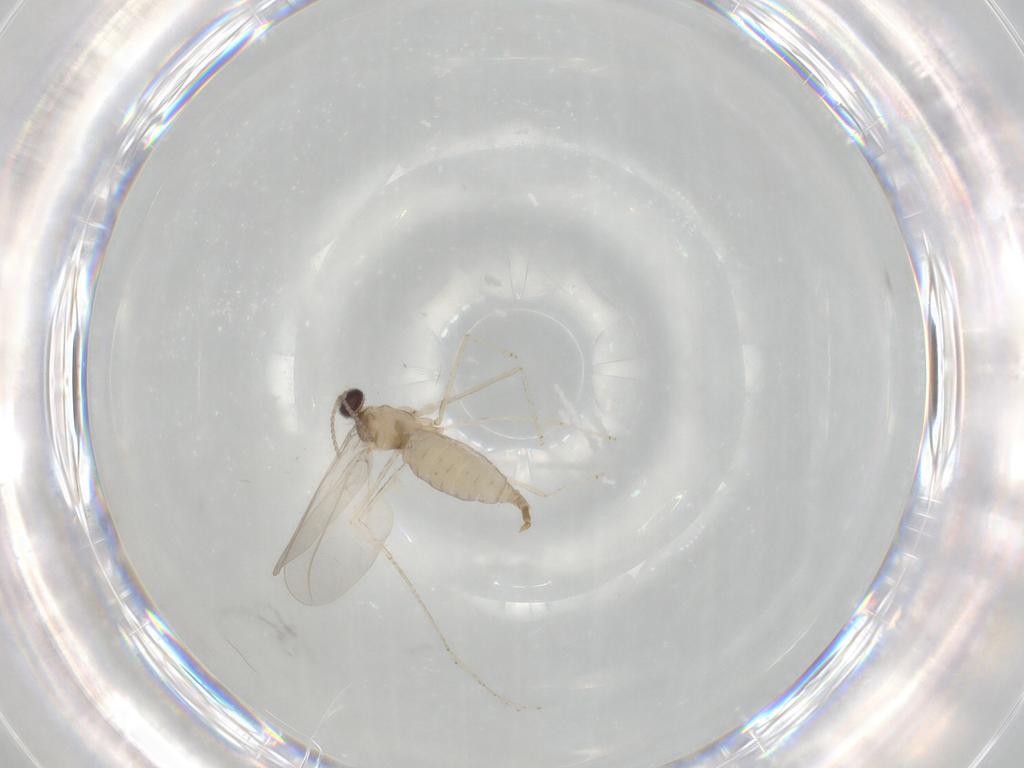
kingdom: Animalia
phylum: Arthropoda
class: Insecta
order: Diptera
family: Cecidomyiidae
